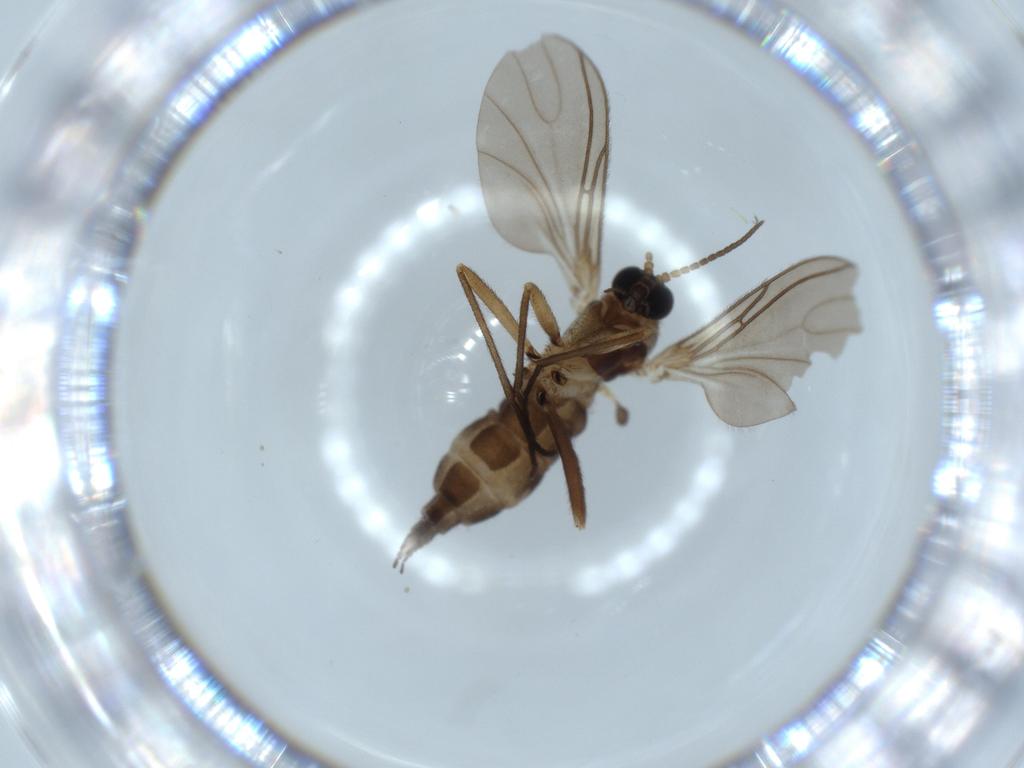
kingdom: Animalia
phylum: Arthropoda
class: Insecta
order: Diptera
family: Sciaridae
